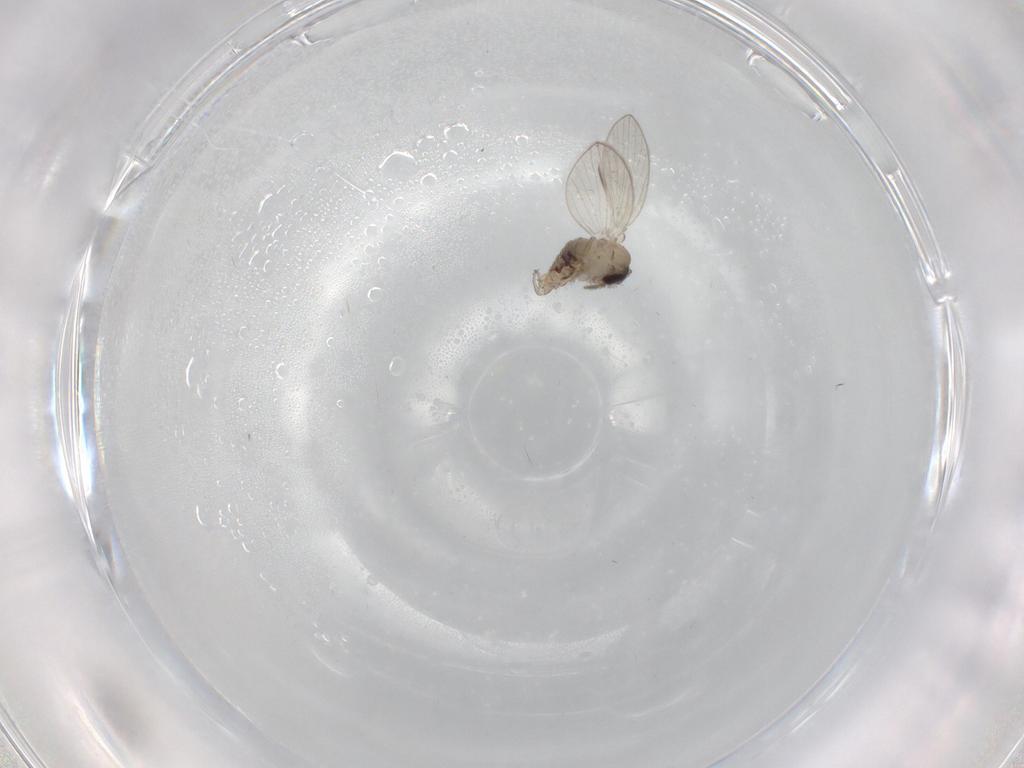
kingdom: Animalia
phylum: Arthropoda
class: Insecta
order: Diptera
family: Psychodidae
